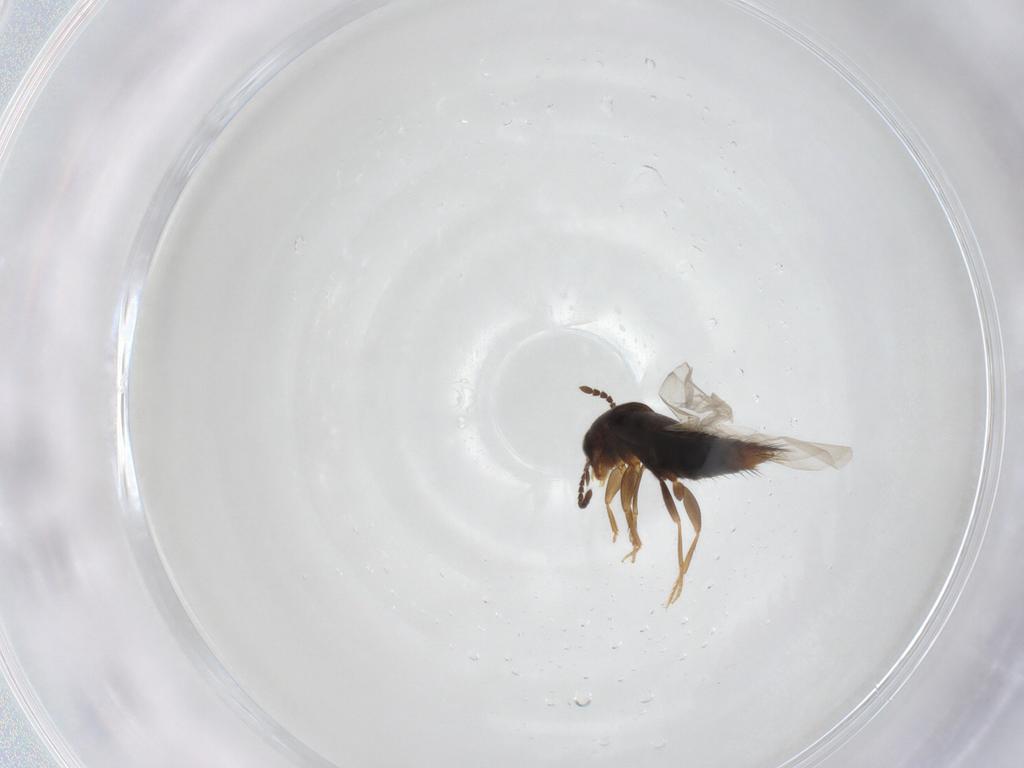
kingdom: Animalia
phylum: Arthropoda
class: Insecta
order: Coleoptera
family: Staphylinidae
